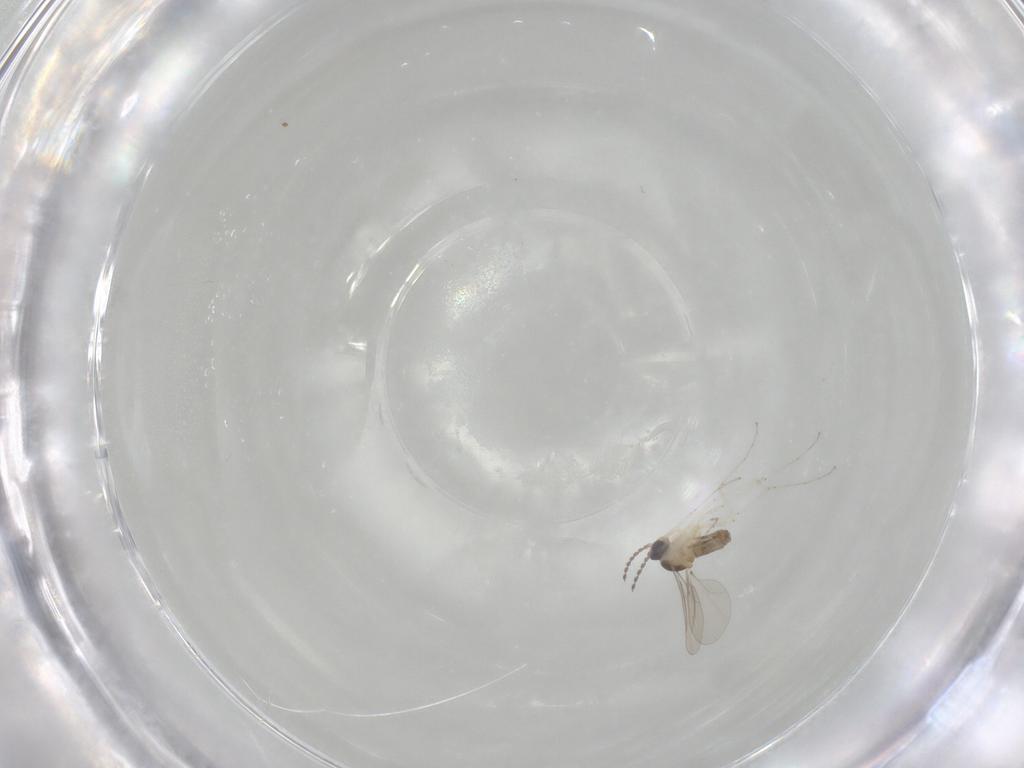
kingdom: Animalia
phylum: Arthropoda
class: Insecta
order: Diptera
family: Cecidomyiidae
